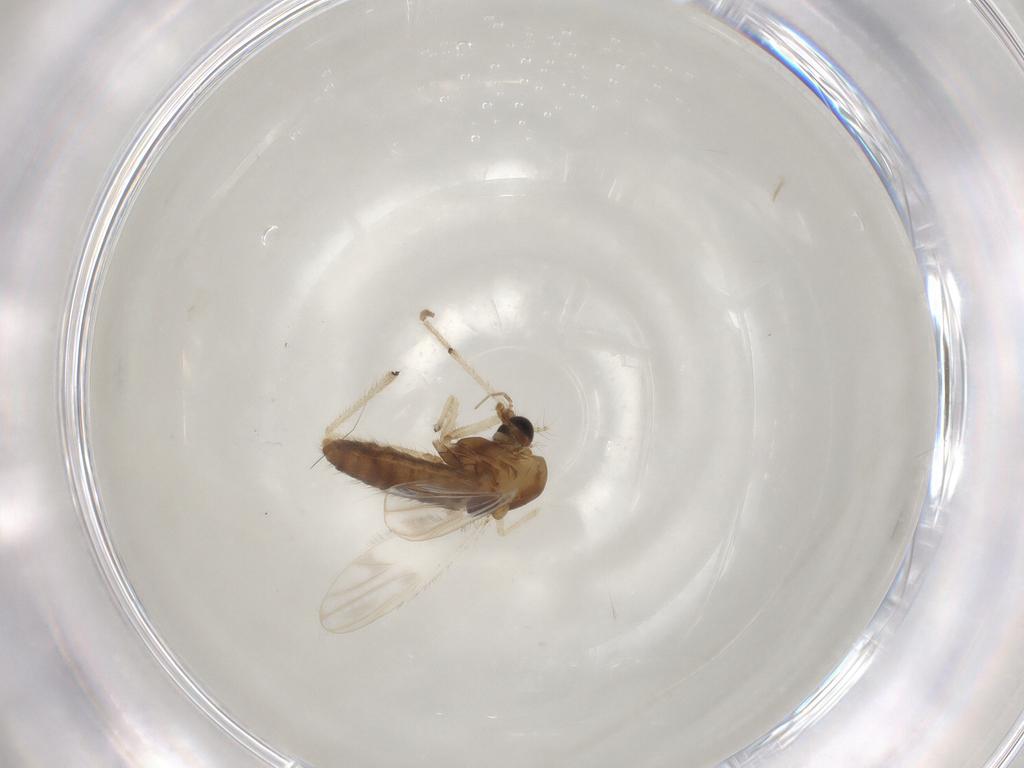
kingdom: Animalia
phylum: Arthropoda
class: Insecta
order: Diptera
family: Chironomidae
